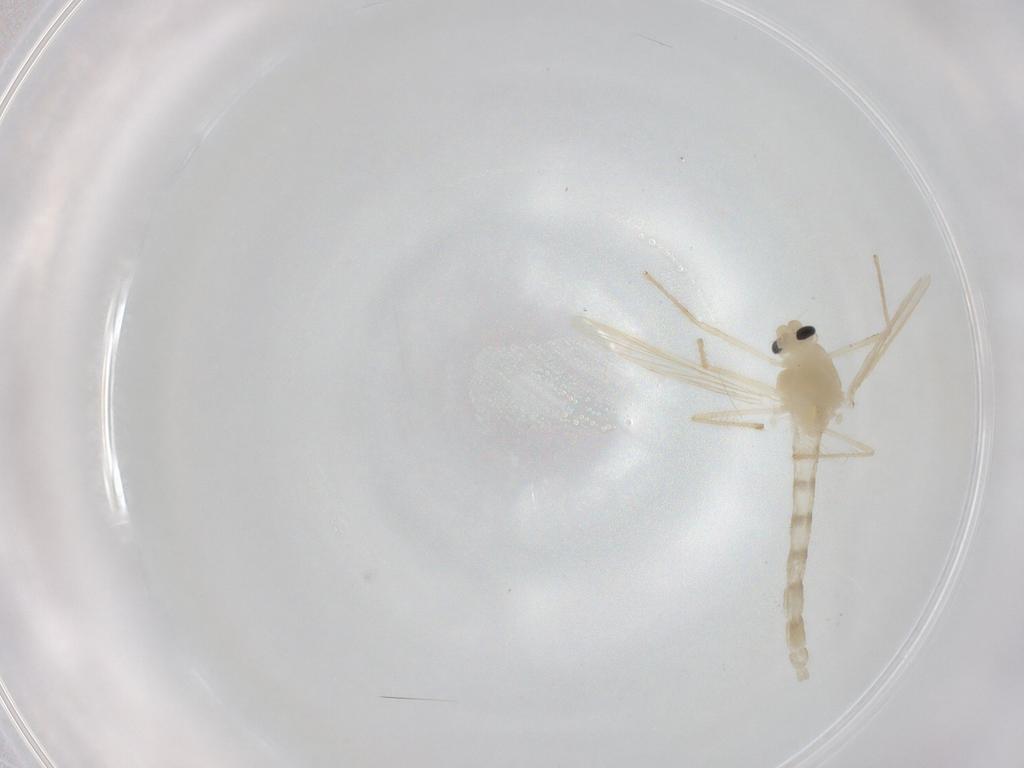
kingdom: Animalia
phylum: Arthropoda
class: Insecta
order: Diptera
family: Chironomidae
